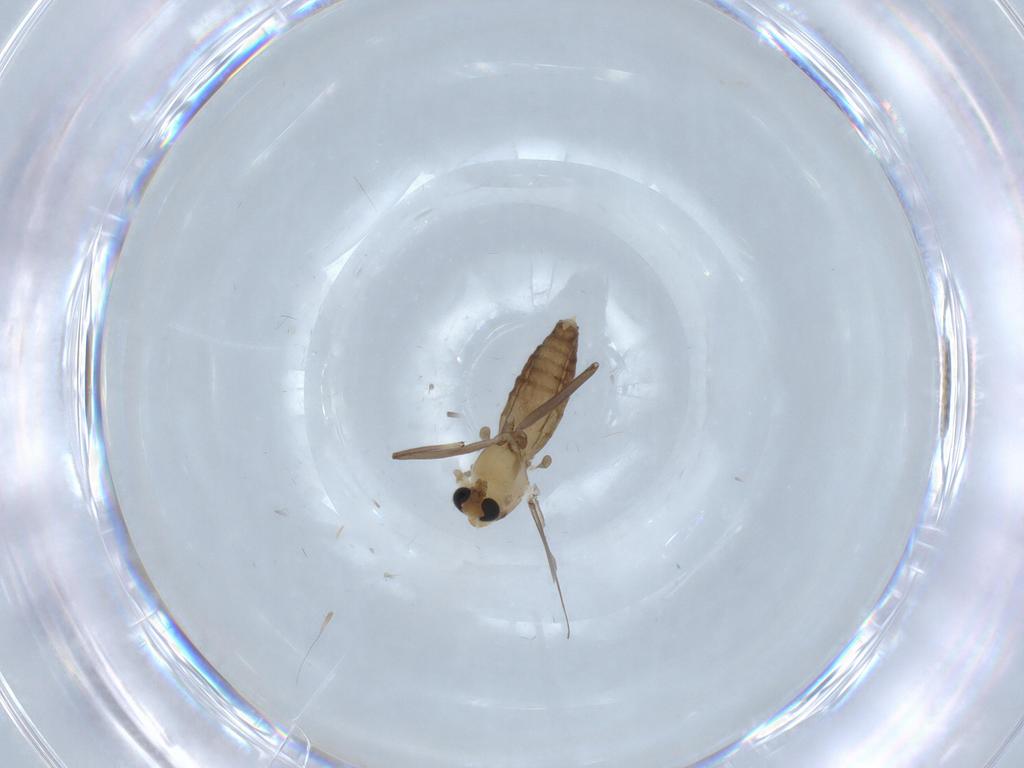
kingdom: Animalia
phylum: Arthropoda
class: Insecta
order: Diptera
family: Chironomidae
